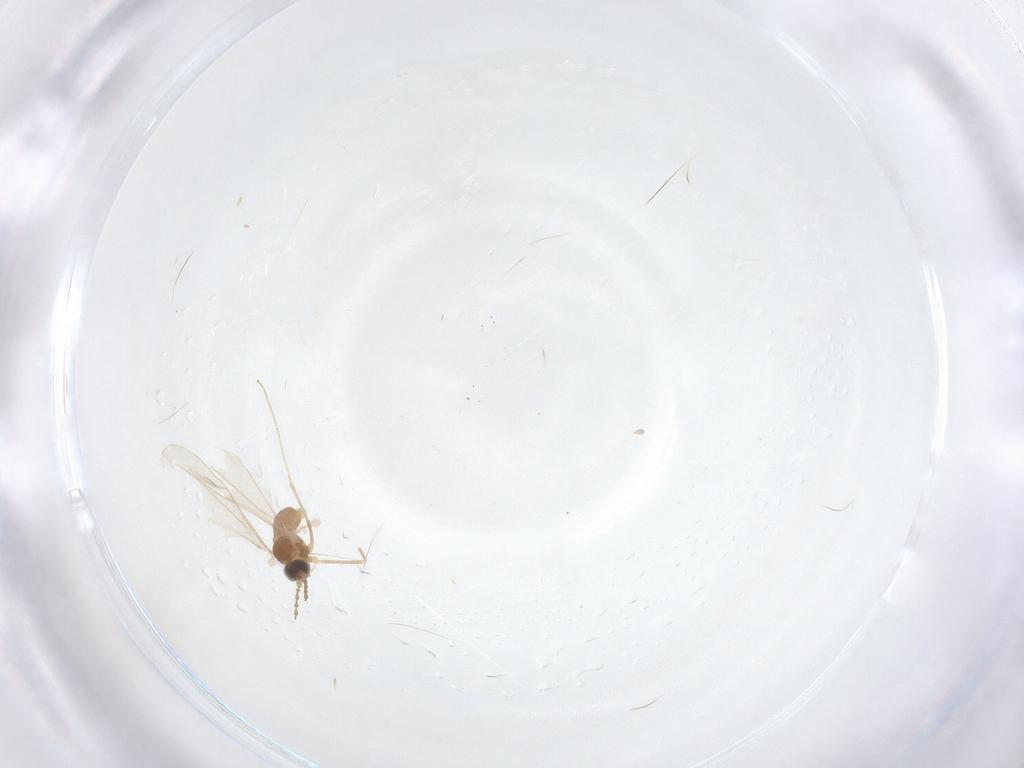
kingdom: Animalia
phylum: Arthropoda
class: Insecta
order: Diptera
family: Cecidomyiidae
